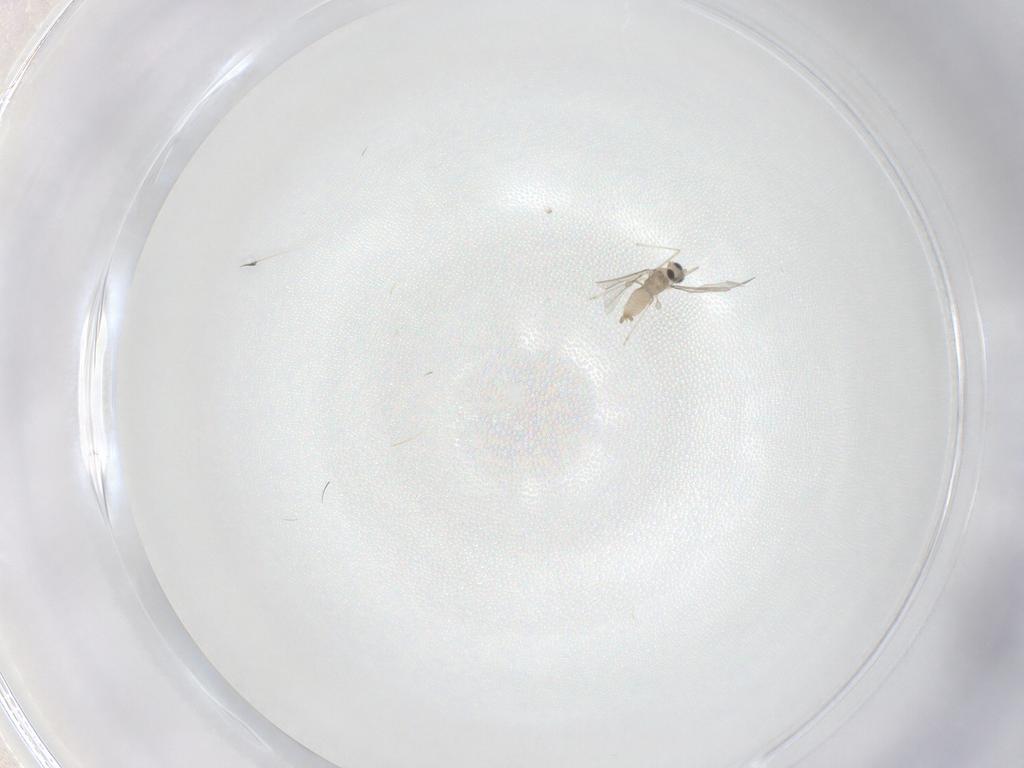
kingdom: Animalia
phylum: Arthropoda
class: Insecta
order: Diptera
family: Cecidomyiidae
